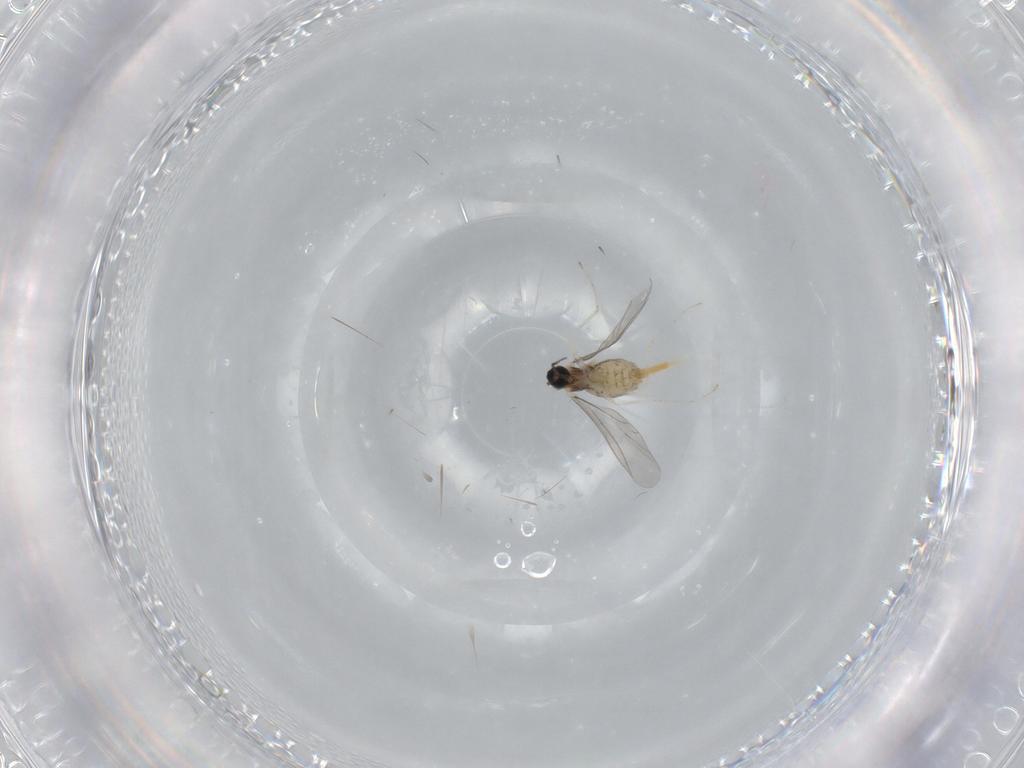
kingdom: Animalia
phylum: Arthropoda
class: Insecta
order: Diptera
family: Cecidomyiidae
